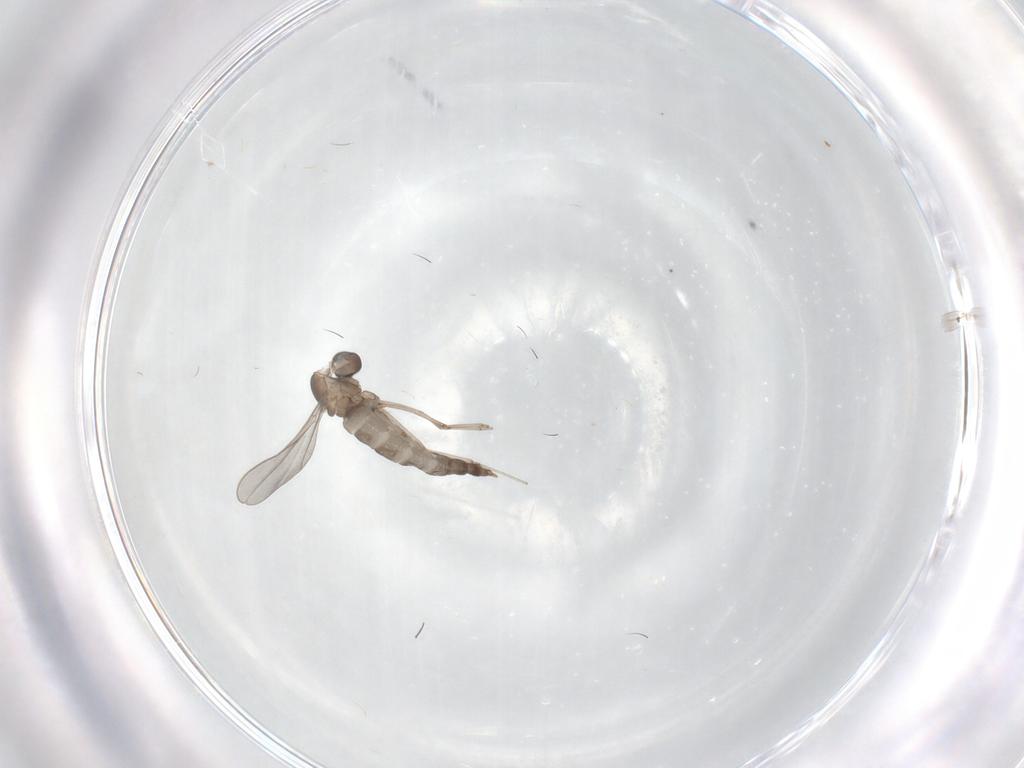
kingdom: Animalia
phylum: Arthropoda
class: Insecta
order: Diptera
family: Cecidomyiidae
